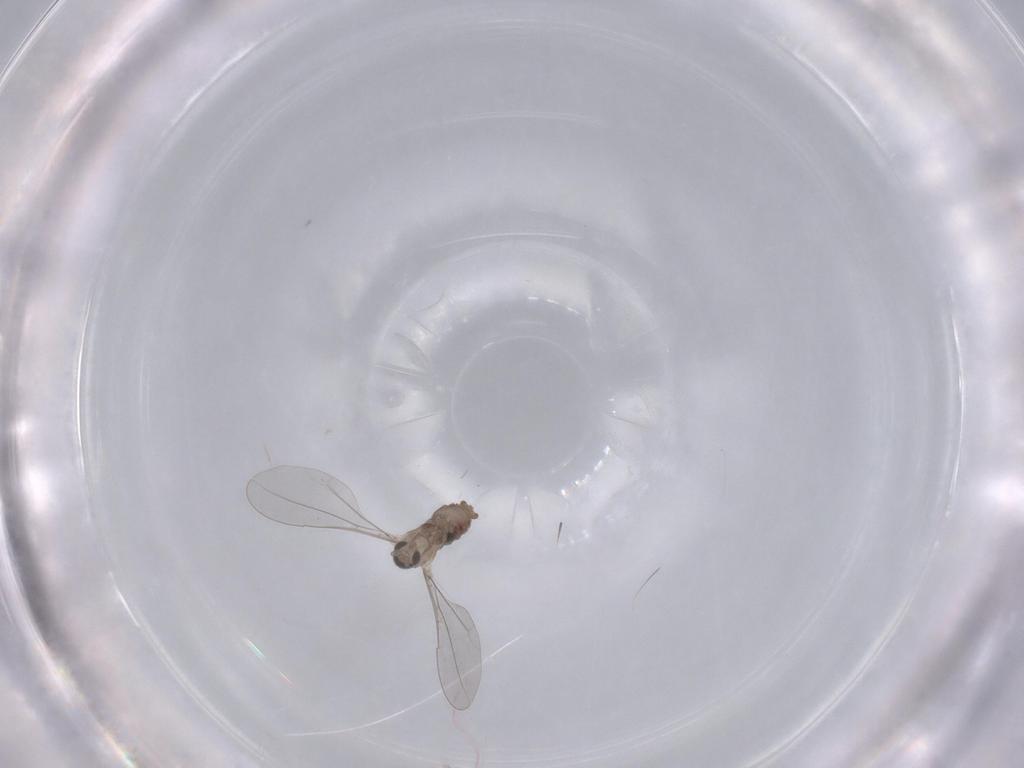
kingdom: Animalia
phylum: Arthropoda
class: Insecta
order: Diptera
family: Cecidomyiidae
